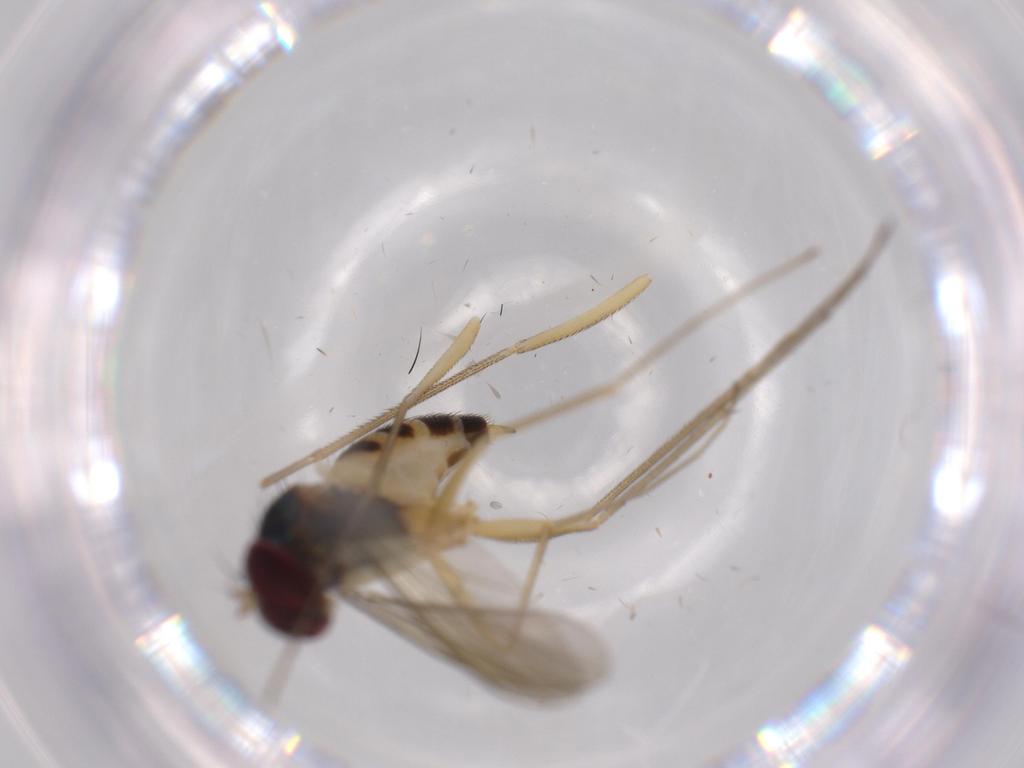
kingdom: Animalia
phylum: Arthropoda
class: Insecta
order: Diptera
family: Dolichopodidae
